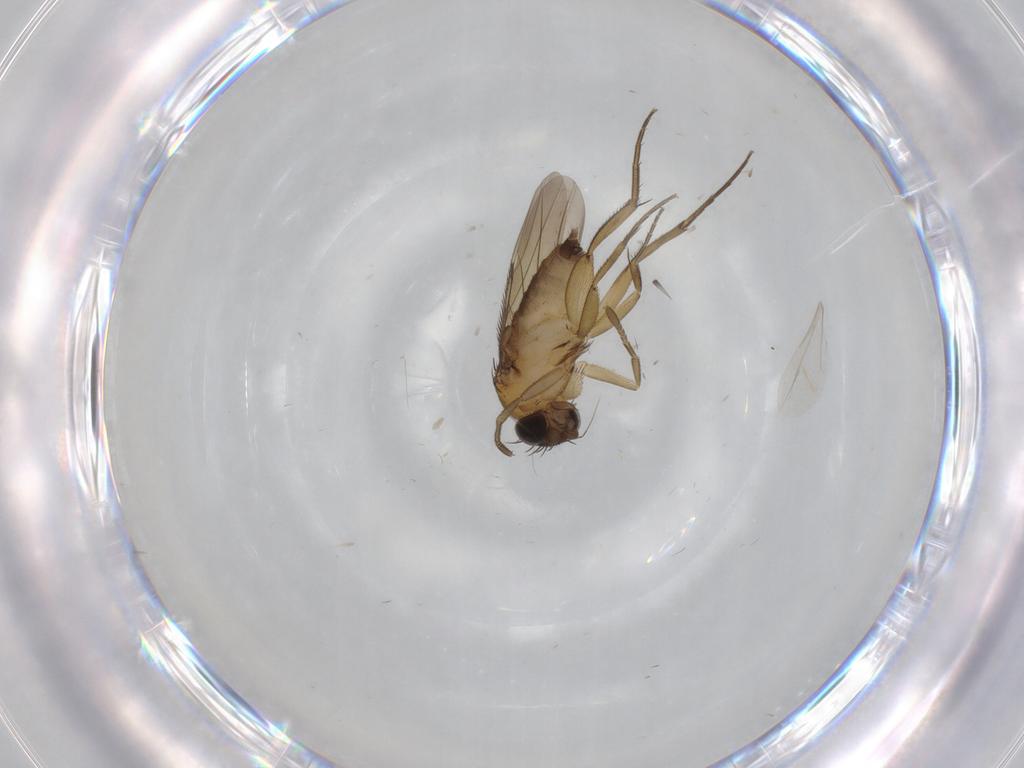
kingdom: Animalia
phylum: Arthropoda
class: Insecta
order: Diptera
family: Phoridae
